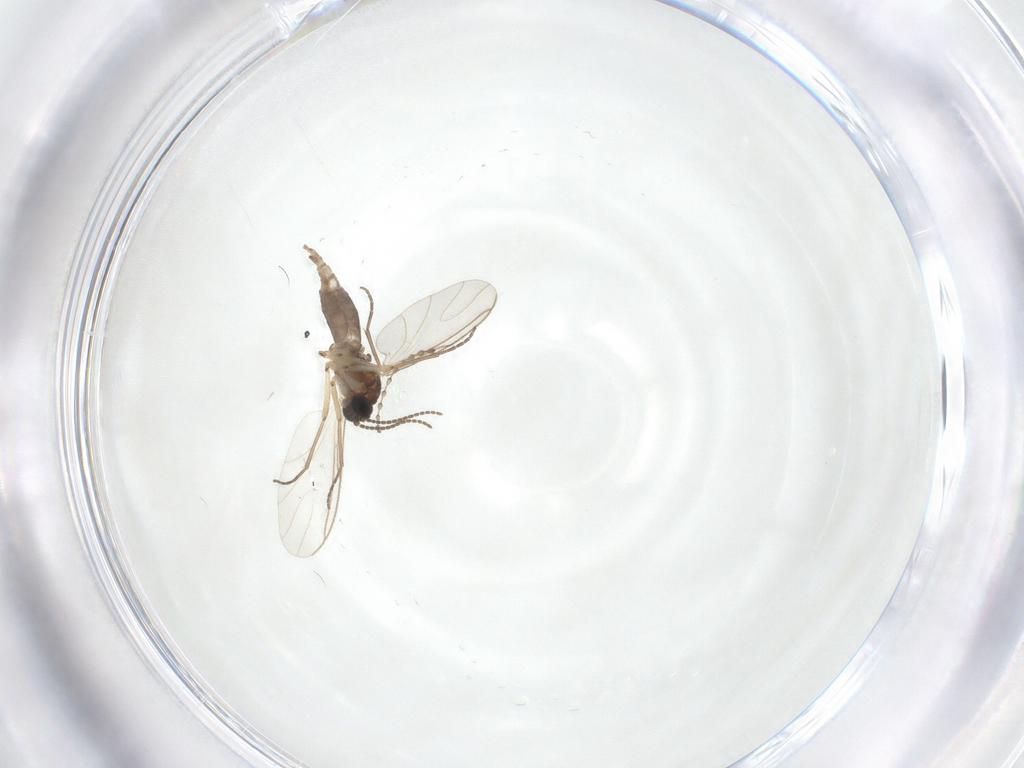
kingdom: Animalia
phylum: Arthropoda
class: Insecta
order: Diptera
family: Sciaridae
